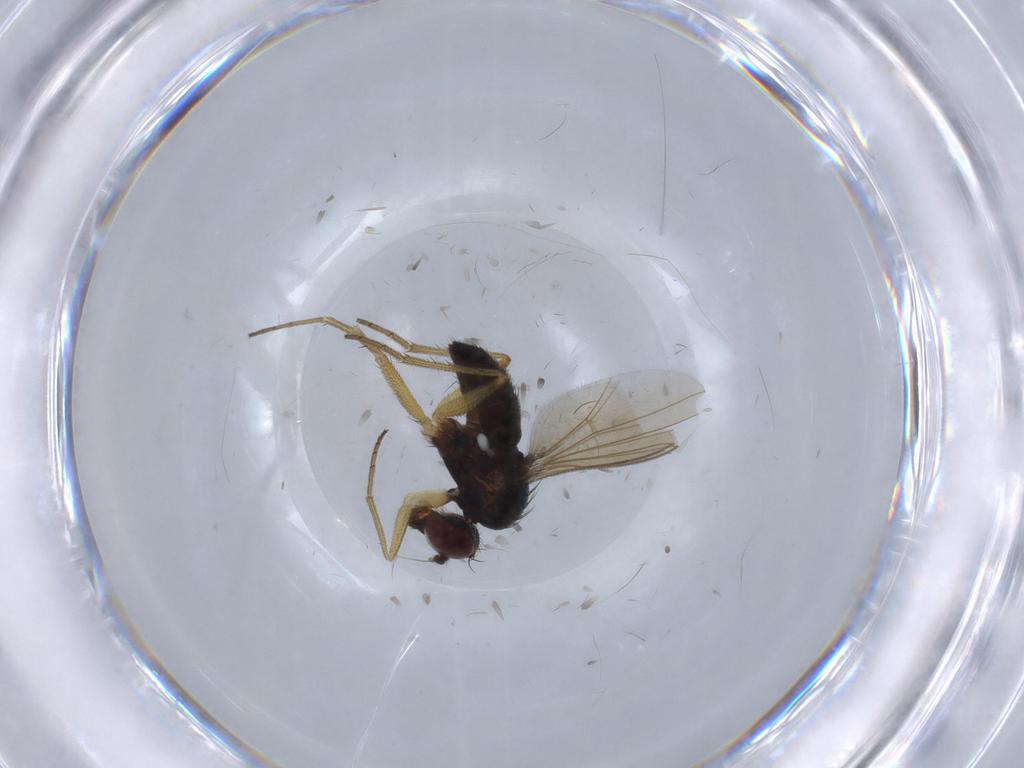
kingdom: Animalia
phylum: Arthropoda
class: Insecta
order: Diptera
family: Dolichopodidae
